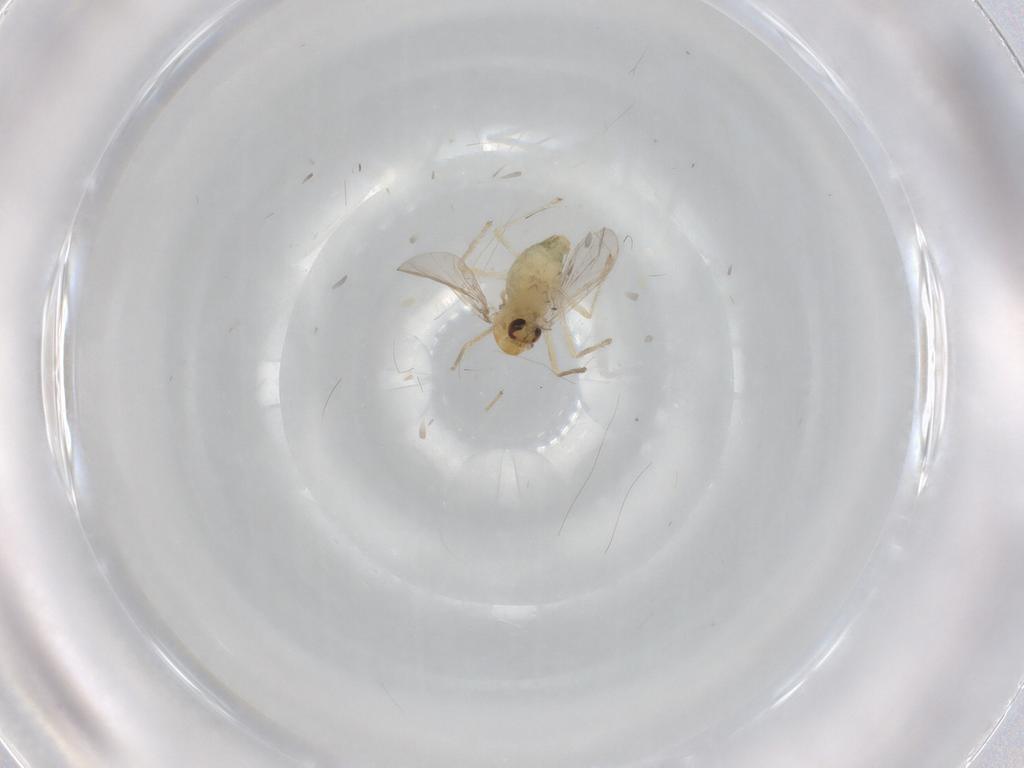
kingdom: Animalia
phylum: Arthropoda
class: Insecta
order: Diptera
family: Chironomidae
